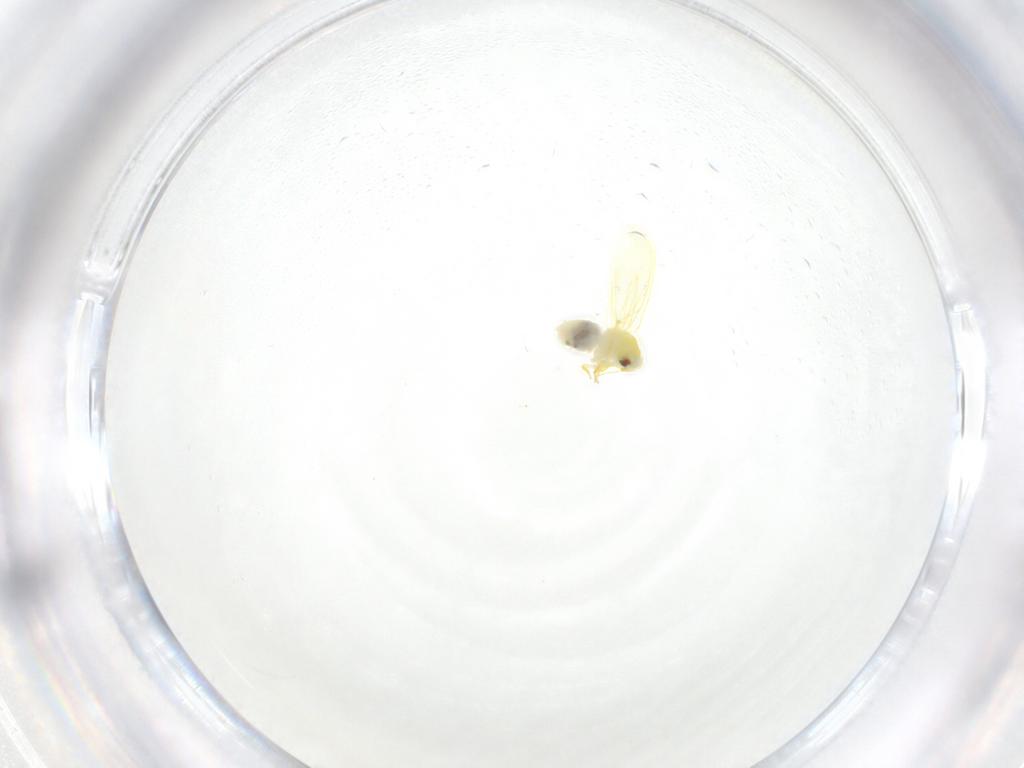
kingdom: Animalia
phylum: Arthropoda
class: Insecta
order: Hemiptera
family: Aleyrodidae
